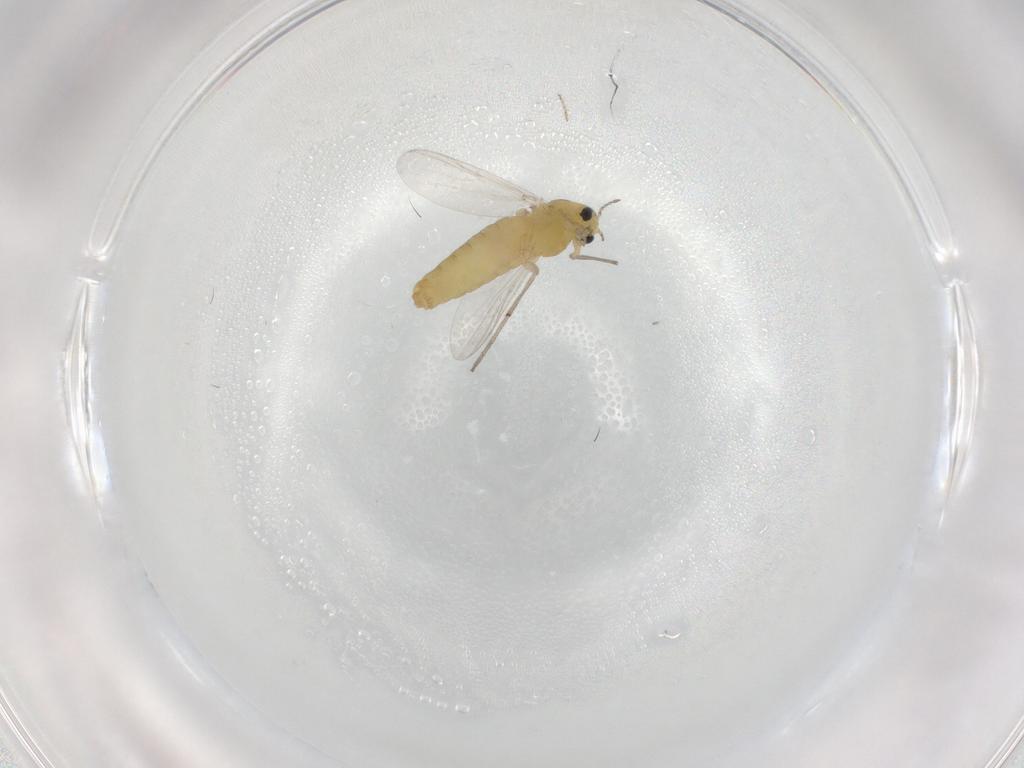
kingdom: Animalia
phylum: Arthropoda
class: Insecta
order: Diptera
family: Chironomidae
